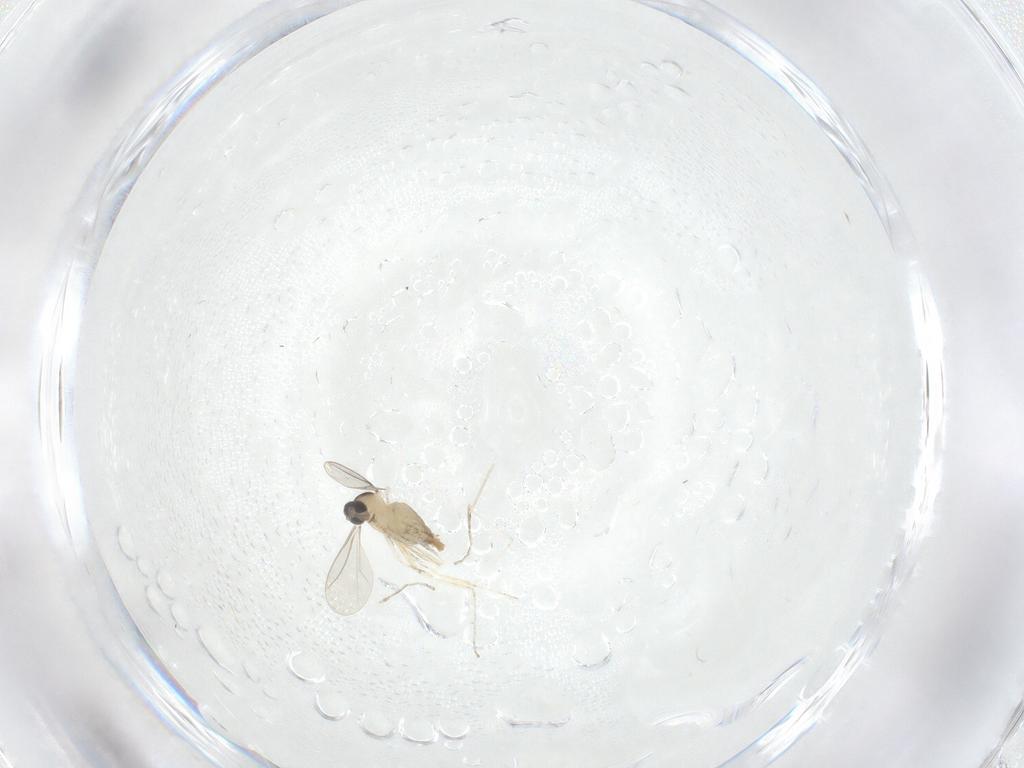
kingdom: Animalia
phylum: Arthropoda
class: Insecta
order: Diptera
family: Cecidomyiidae
